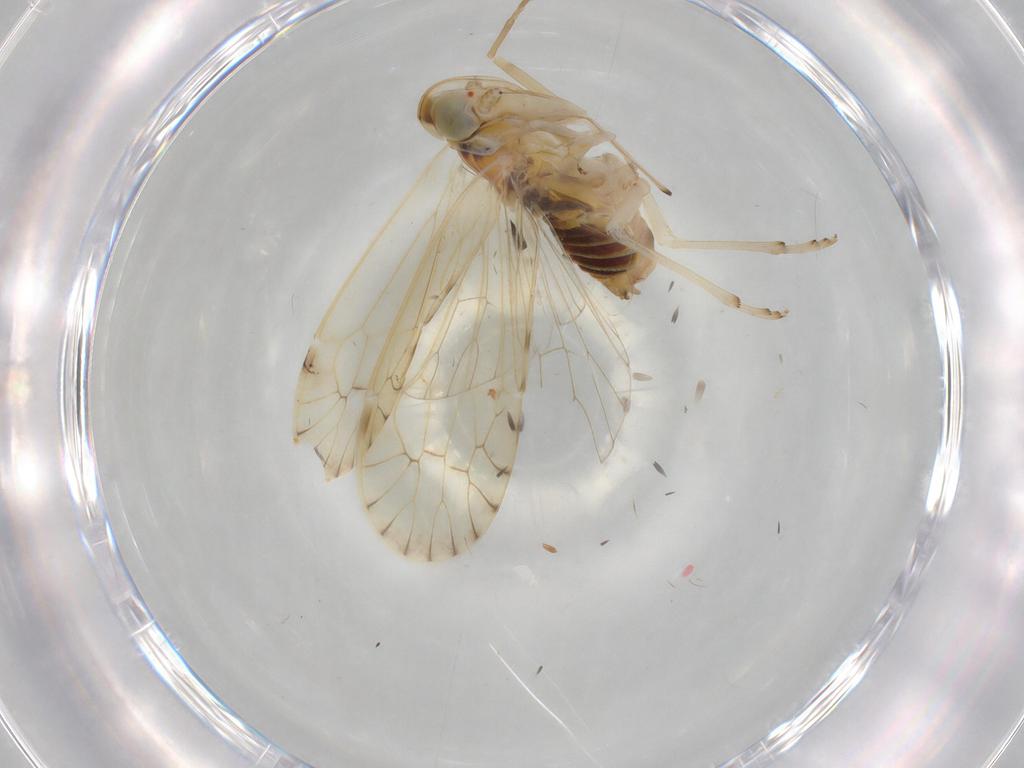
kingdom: Animalia
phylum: Arthropoda
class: Insecta
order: Hemiptera
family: Kinnaridae
